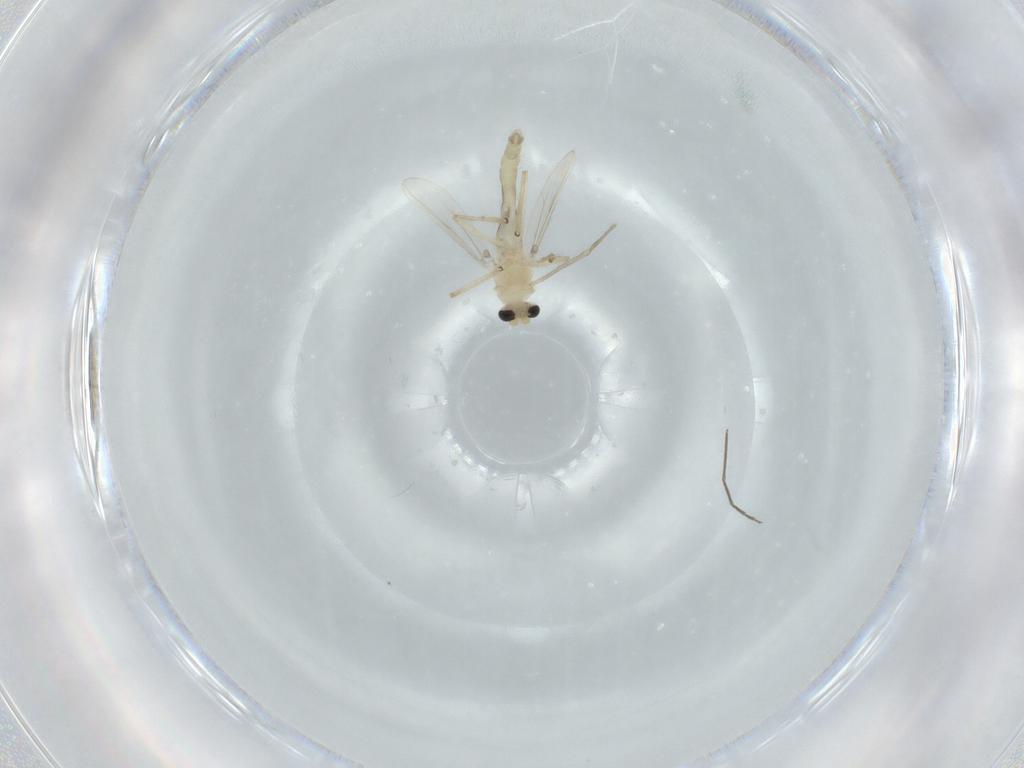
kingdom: Animalia
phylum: Arthropoda
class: Insecta
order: Diptera
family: Chironomidae
